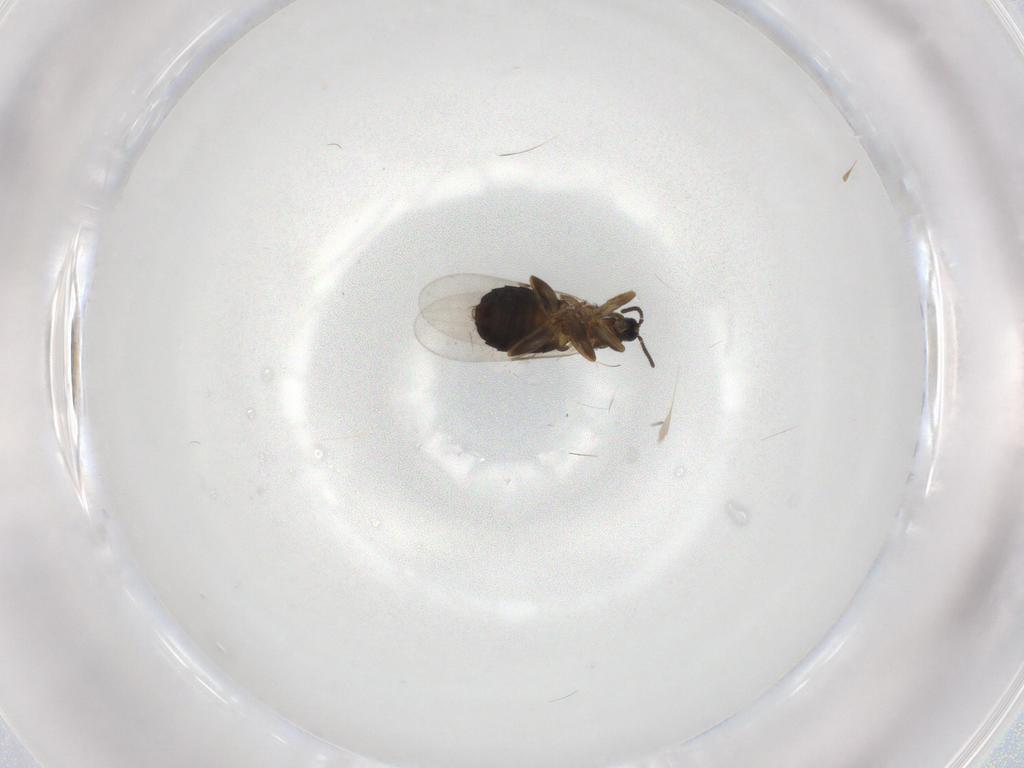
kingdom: Animalia
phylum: Arthropoda
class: Insecta
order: Diptera
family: Scatopsidae
